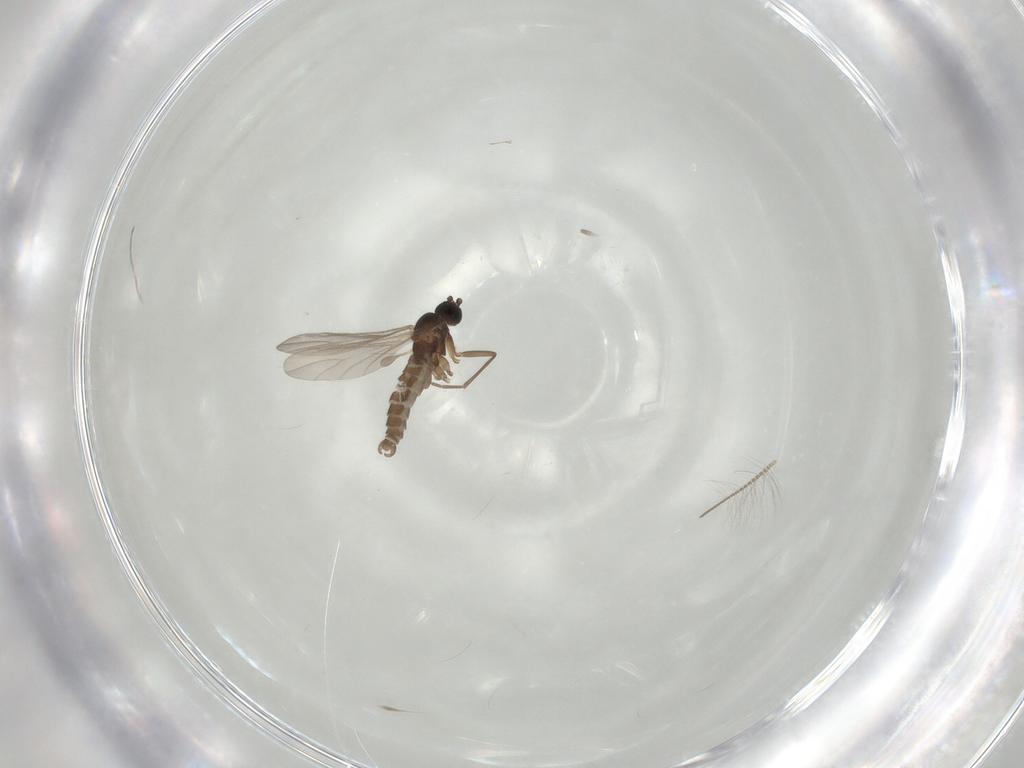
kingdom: Animalia
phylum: Arthropoda
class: Insecta
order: Diptera
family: Sciaridae
